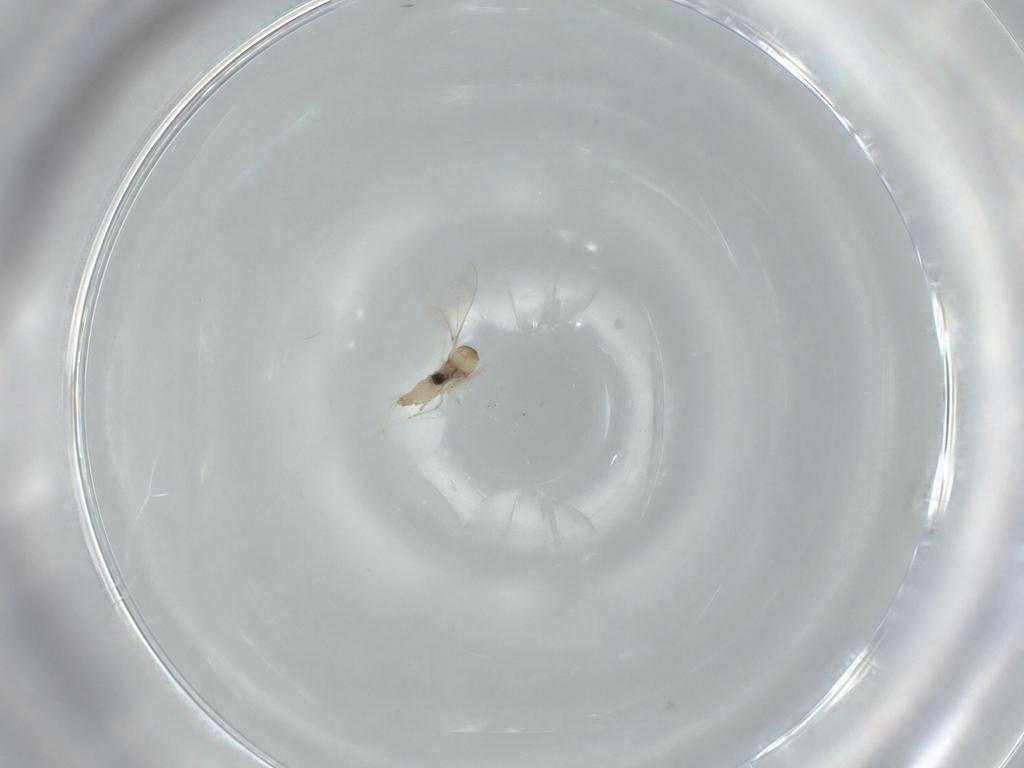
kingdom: Animalia
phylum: Arthropoda
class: Insecta
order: Diptera
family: Cecidomyiidae
